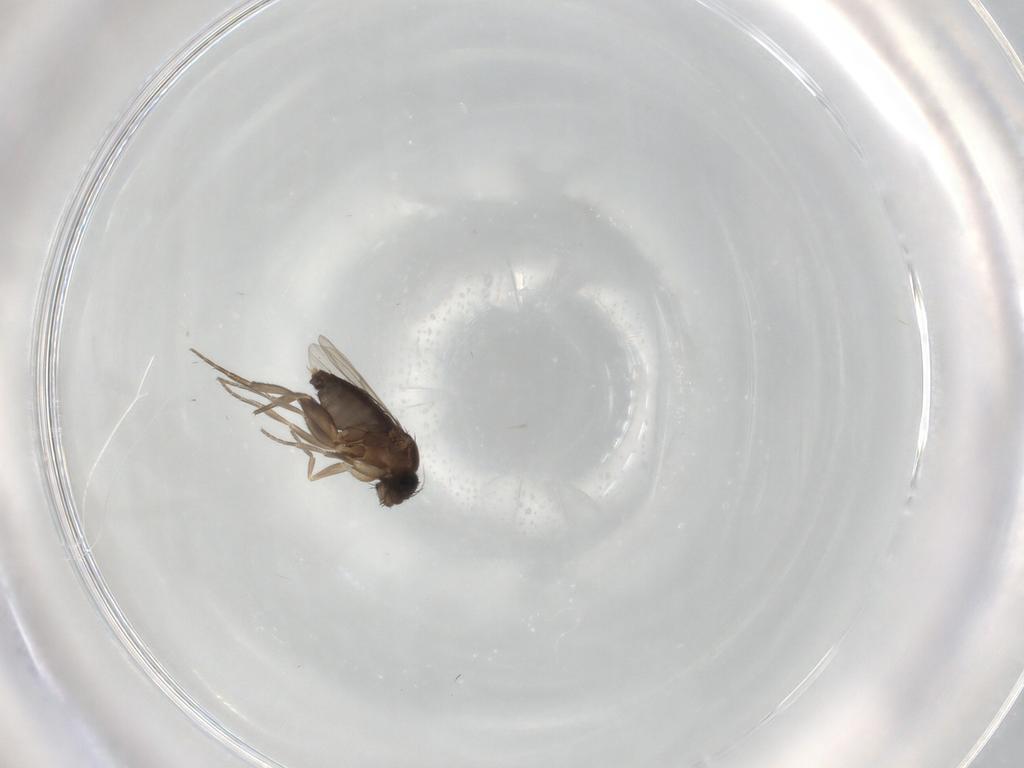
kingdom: Animalia
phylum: Arthropoda
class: Insecta
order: Diptera
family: Phoridae
